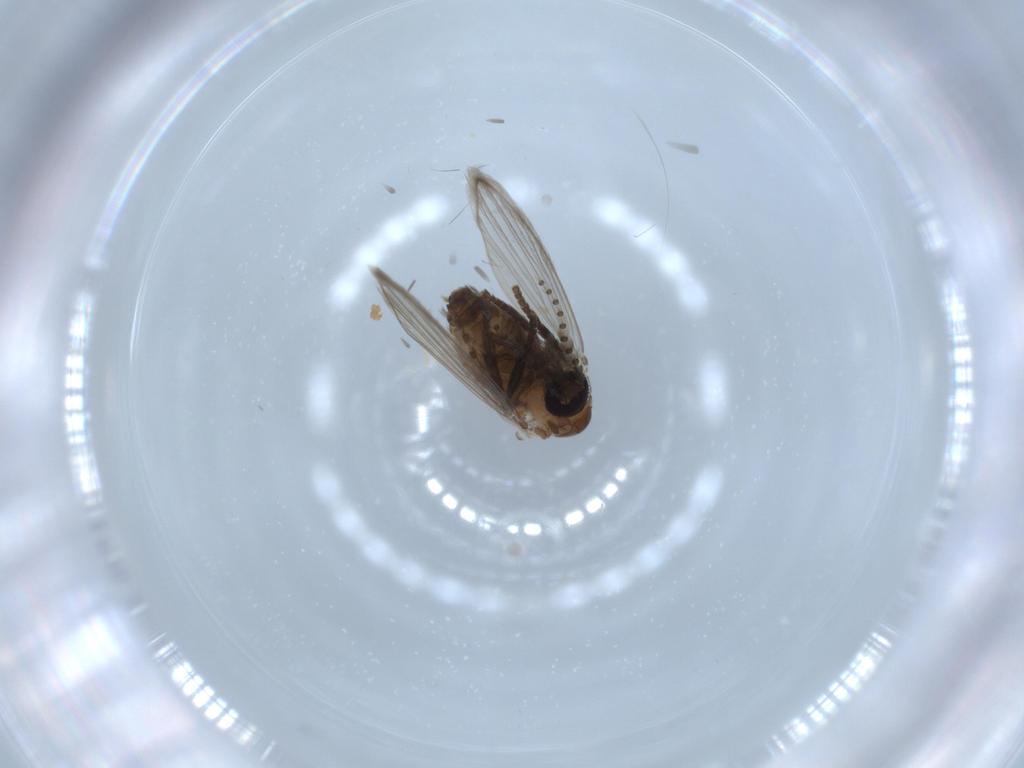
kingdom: Animalia
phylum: Arthropoda
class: Insecta
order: Diptera
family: Psychodidae
